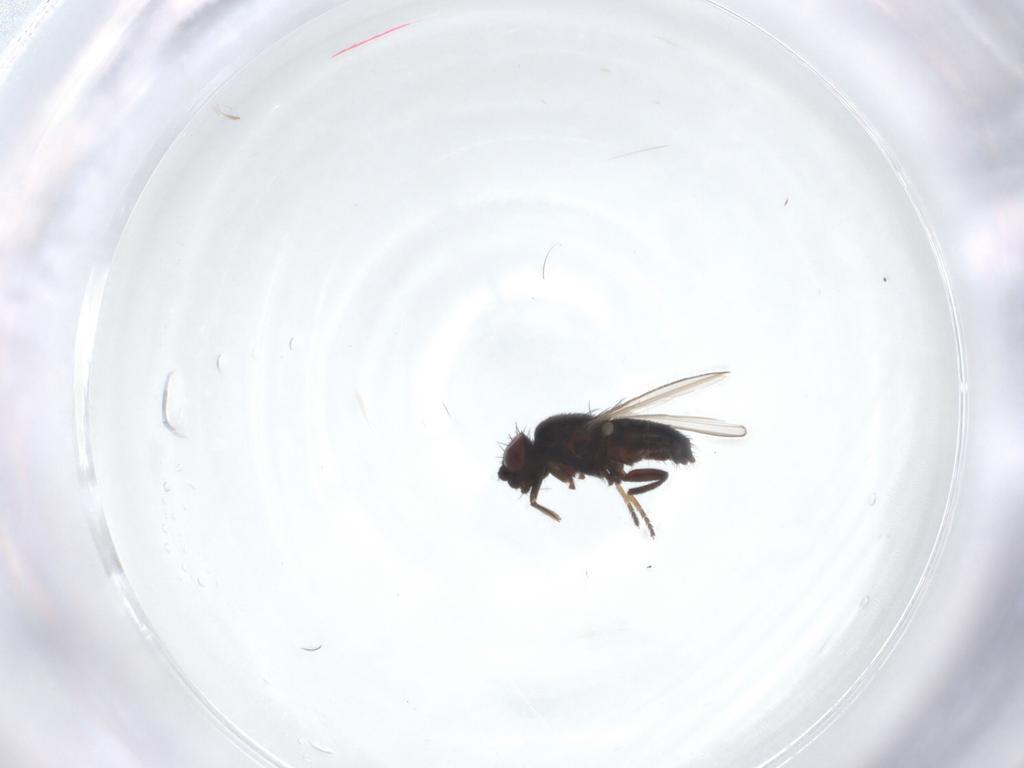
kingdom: Animalia
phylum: Arthropoda
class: Insecta
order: Diptera
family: Milichiidae
